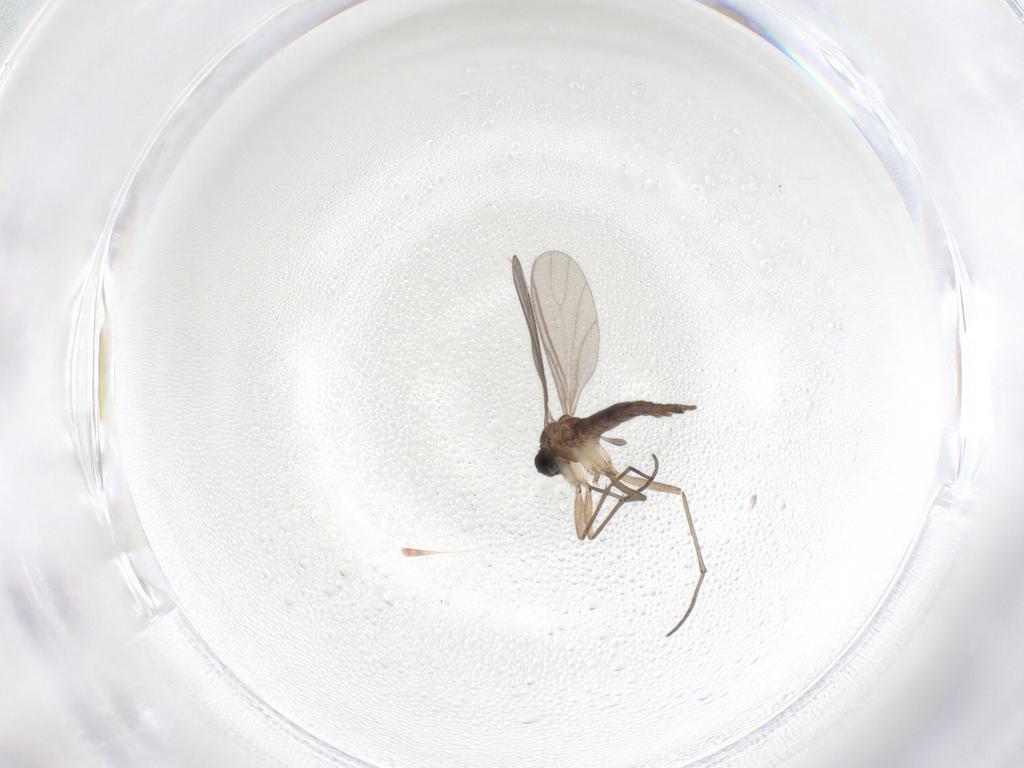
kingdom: Animalia
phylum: Arthropoda
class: Insecta
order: Diptera
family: Sciaridae
